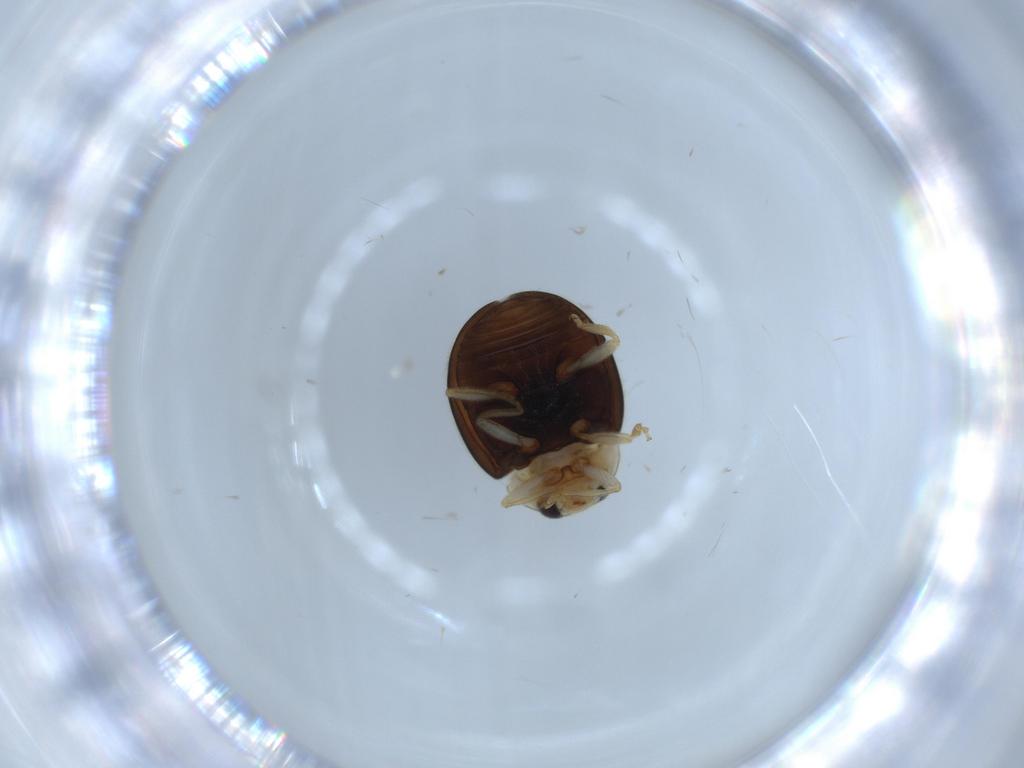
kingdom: Animalia
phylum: Arthropoda
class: Insecta
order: Coleoptera
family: Coccinellidae
